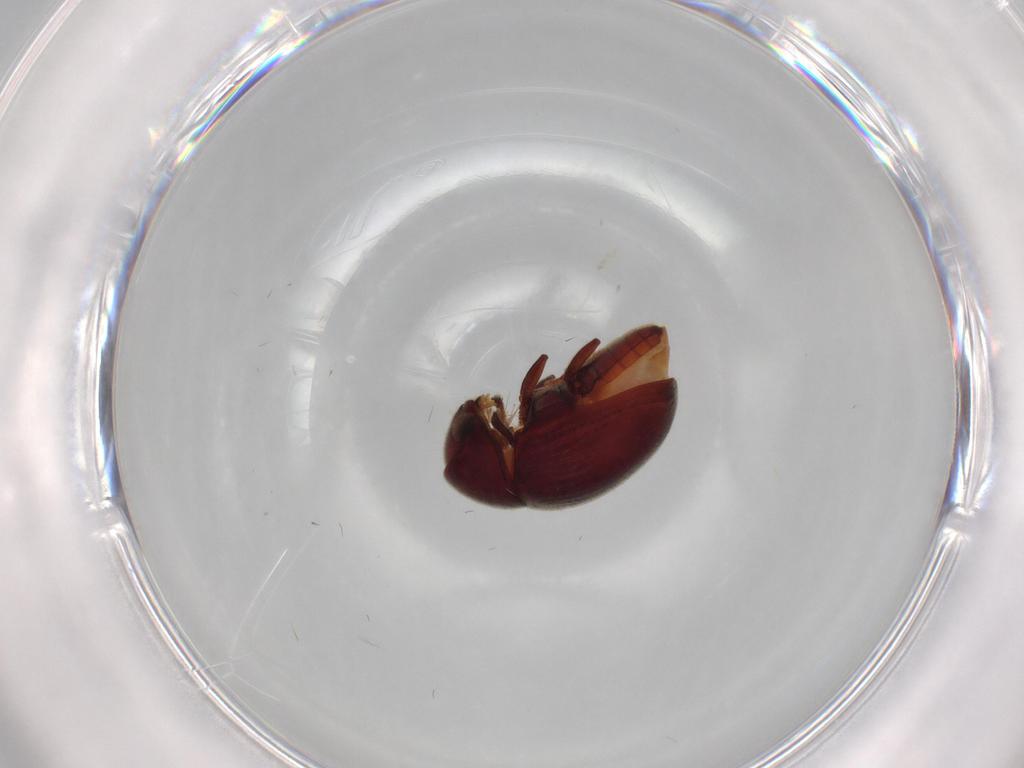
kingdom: Animalia
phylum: Arthropoda
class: Insecta
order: Coleoptera
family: Ptinidae
